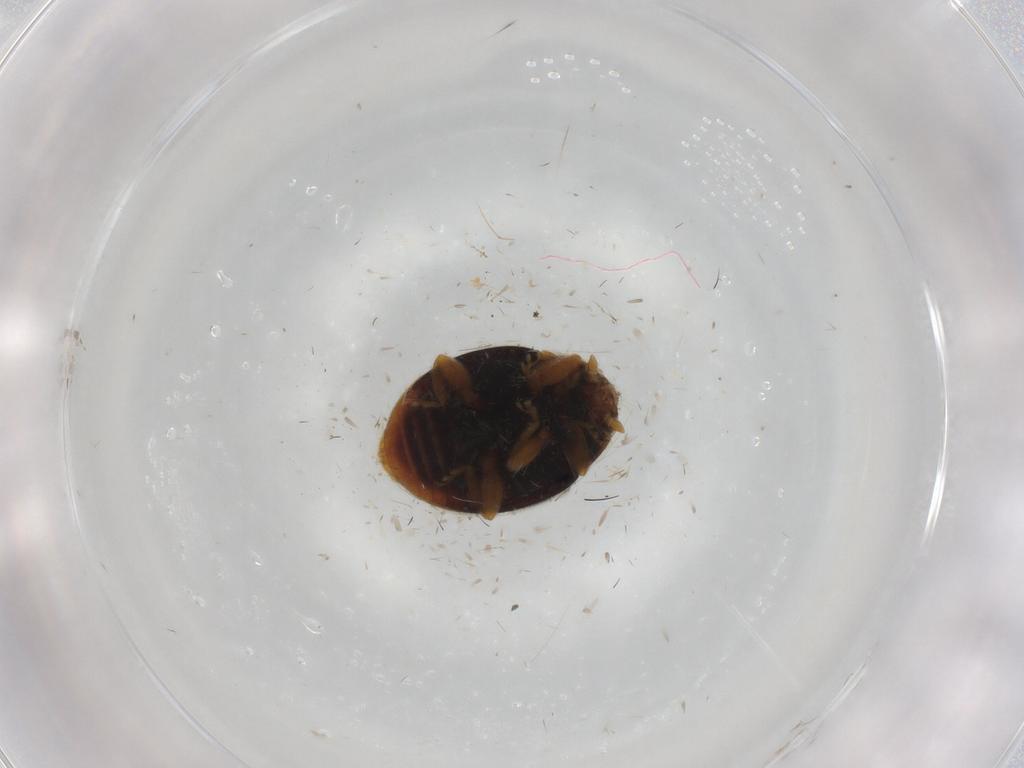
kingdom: Animalia
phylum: Arthropoda
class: Insecta
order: Coleoptera
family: Coccinellidae
